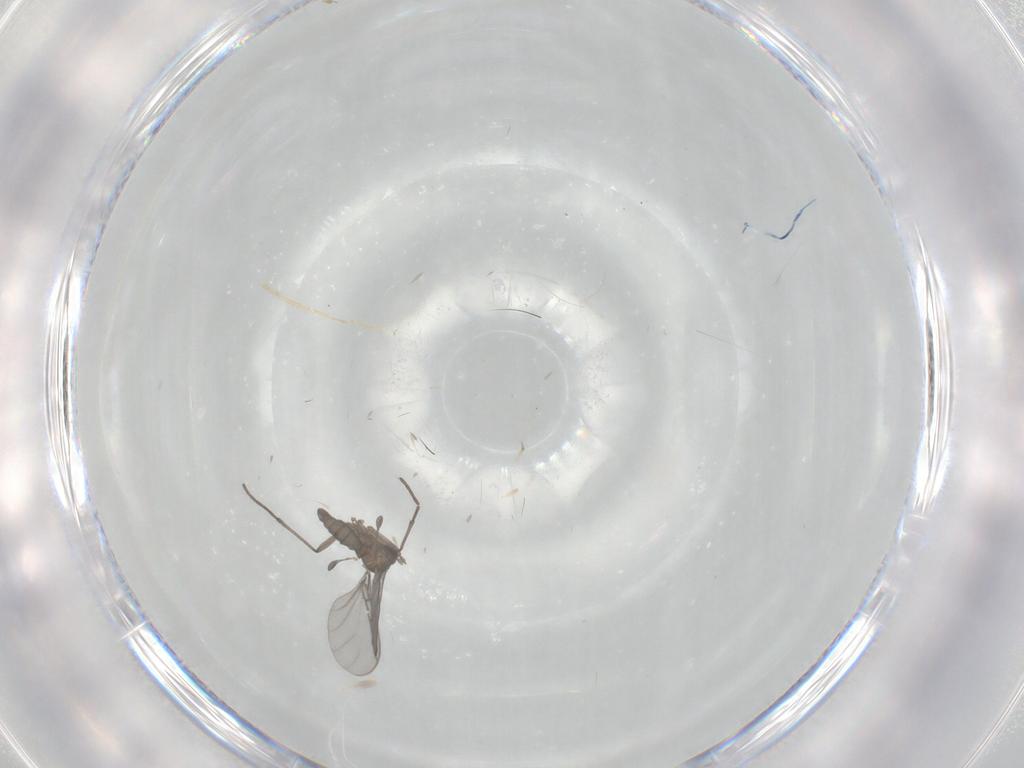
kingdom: Animalia
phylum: Arthropoda
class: Insecta
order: Diptera
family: Sciaridae
